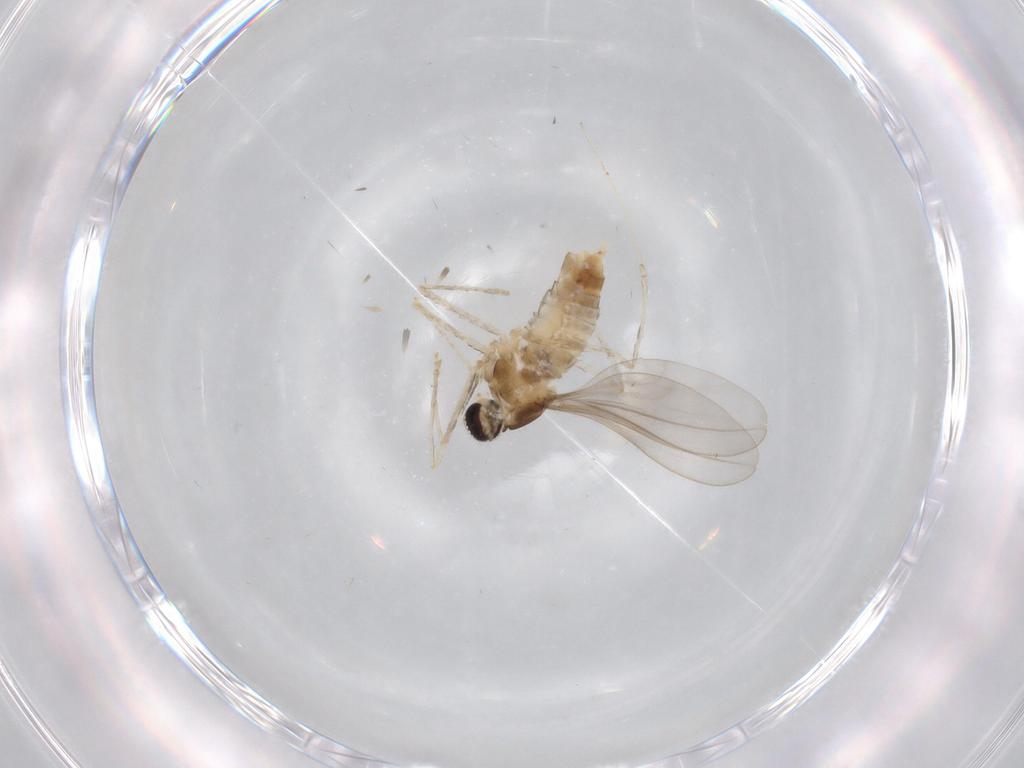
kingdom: Animalia
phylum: Arthropoda
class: Insecta
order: Diptera
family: Cecidomyiidae
